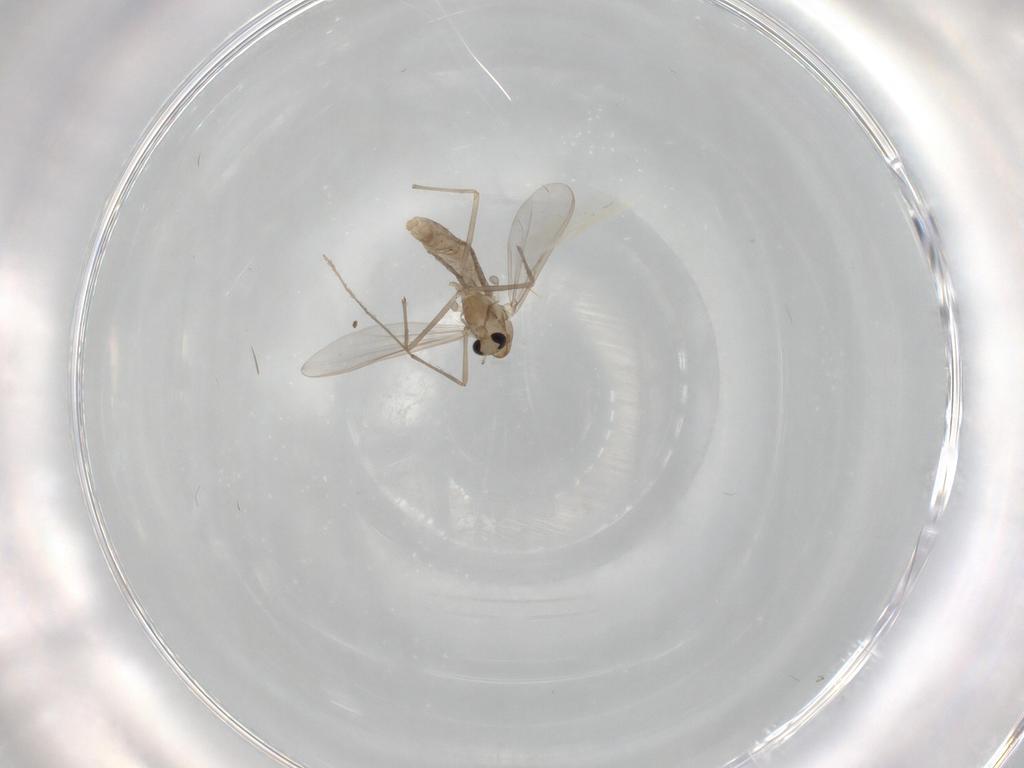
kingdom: Animalia
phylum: Arthropoda
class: Insecta
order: Diptera
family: Chironomidae
